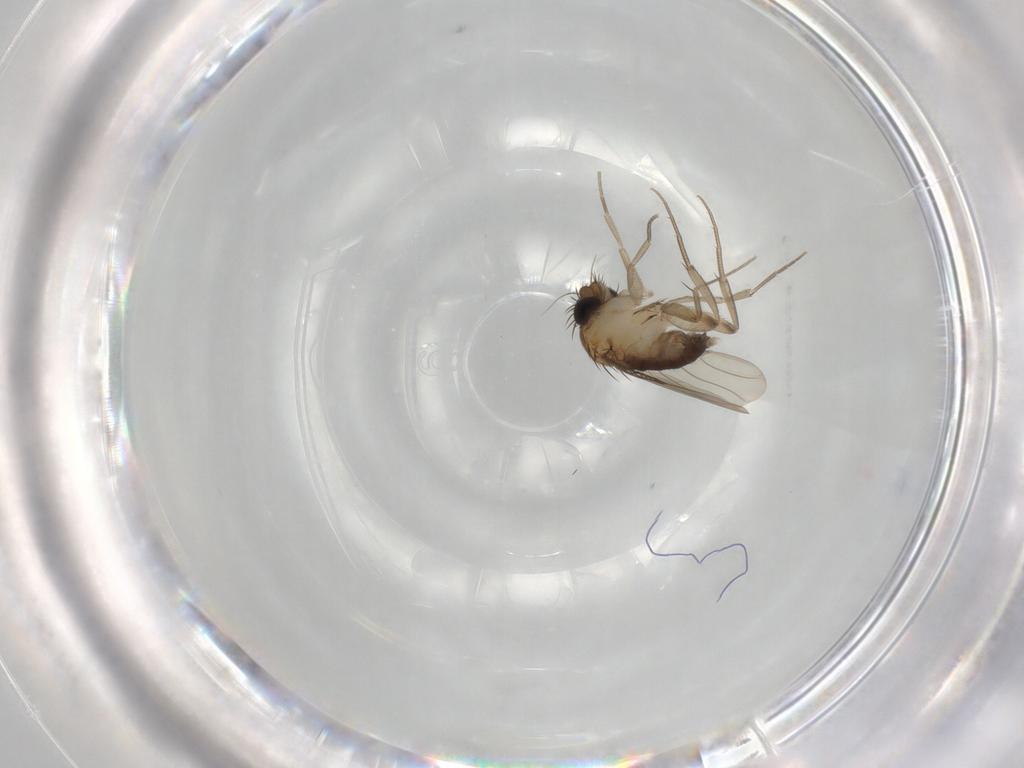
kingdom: Animalia
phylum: Arthropoda
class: Insecta
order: Diptera
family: Phoridae
